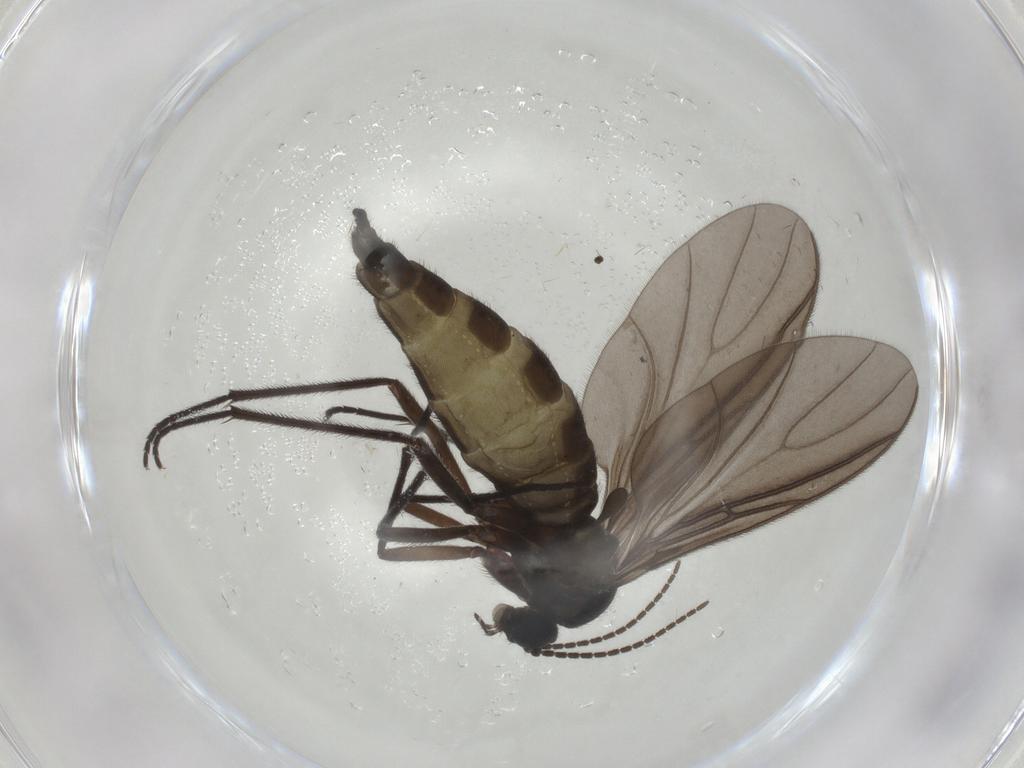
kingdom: Animalia
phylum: Arthropoda
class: Insecta
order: Diptera
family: Sciaridae
